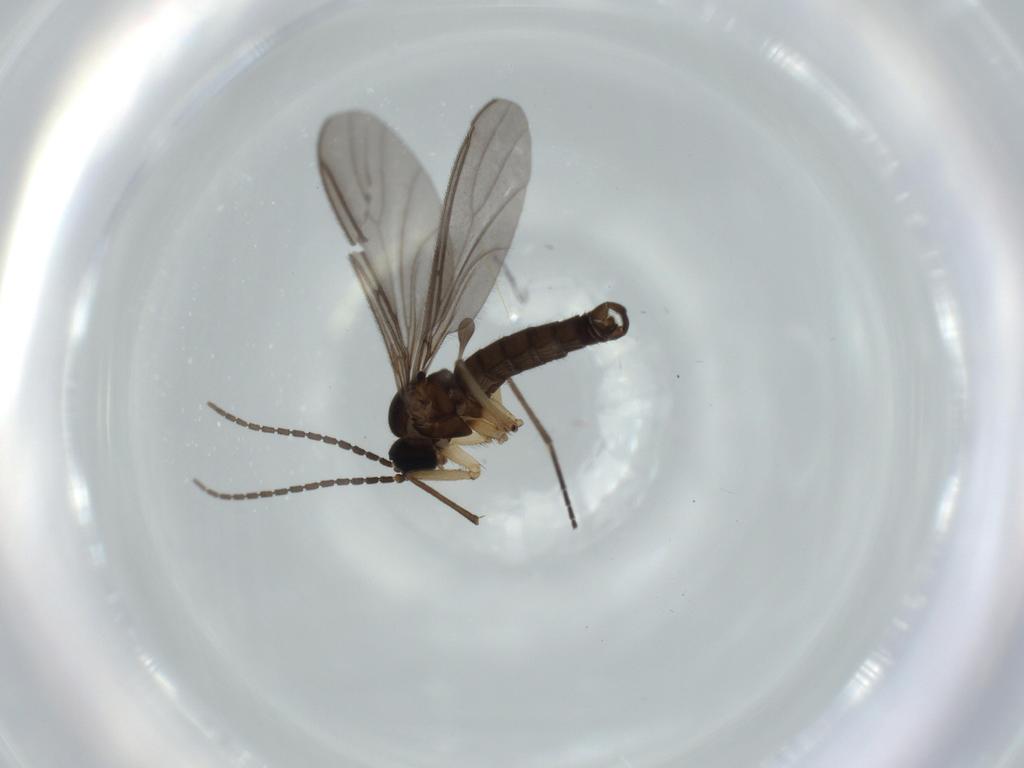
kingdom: Animalia
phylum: Arthropoda
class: Insecta
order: Diptera
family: Sciaridae
